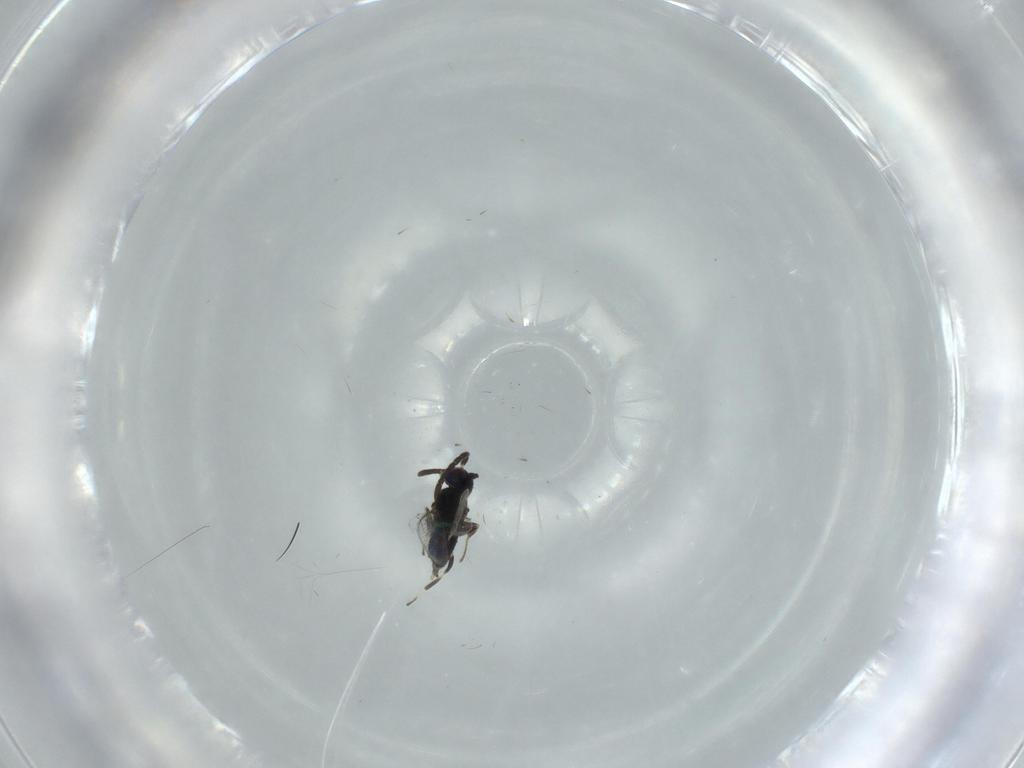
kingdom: Animalia
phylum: Arthropoda
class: Insecta
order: Hymenoptera
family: Eupelmidae
